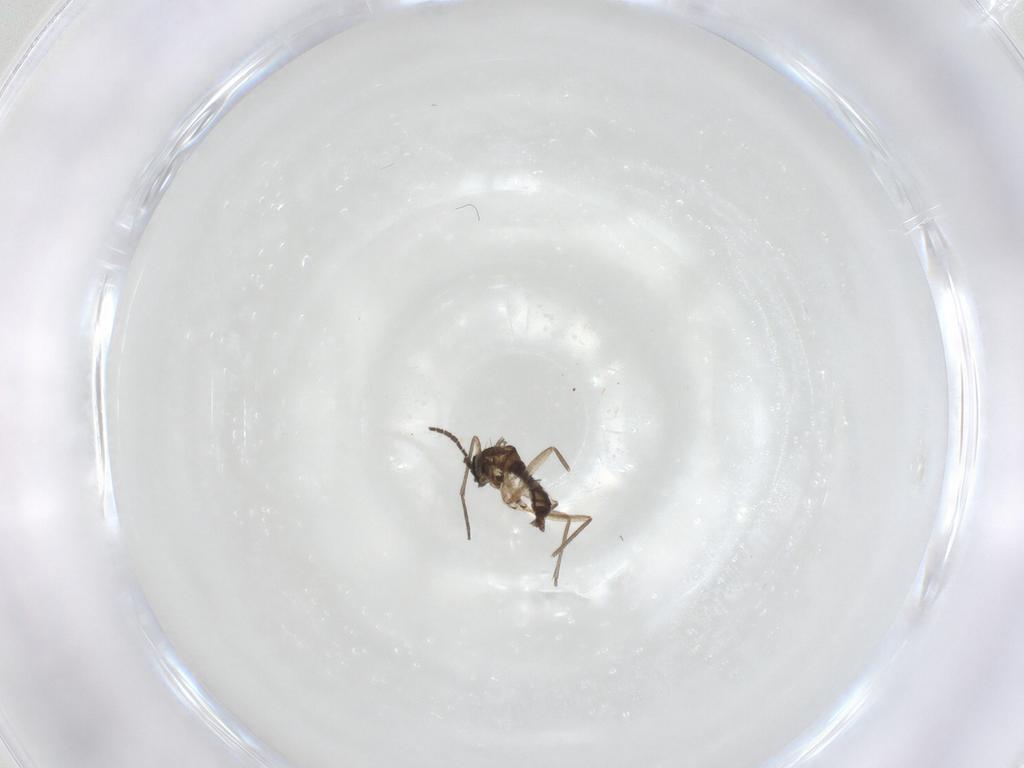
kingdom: Animalia
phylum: Arthropoda
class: Insecta
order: Diptera
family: Sciaridae
